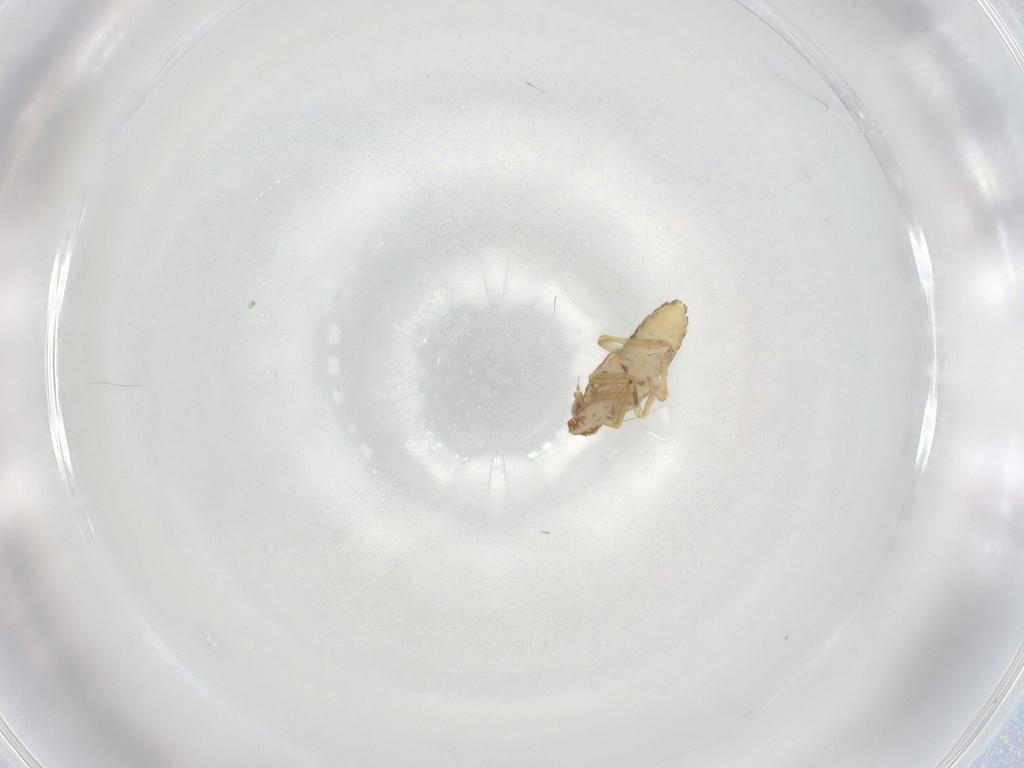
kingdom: Animalia
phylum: Arthropoda
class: Insecta
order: Hemiptera
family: Delphacidae
